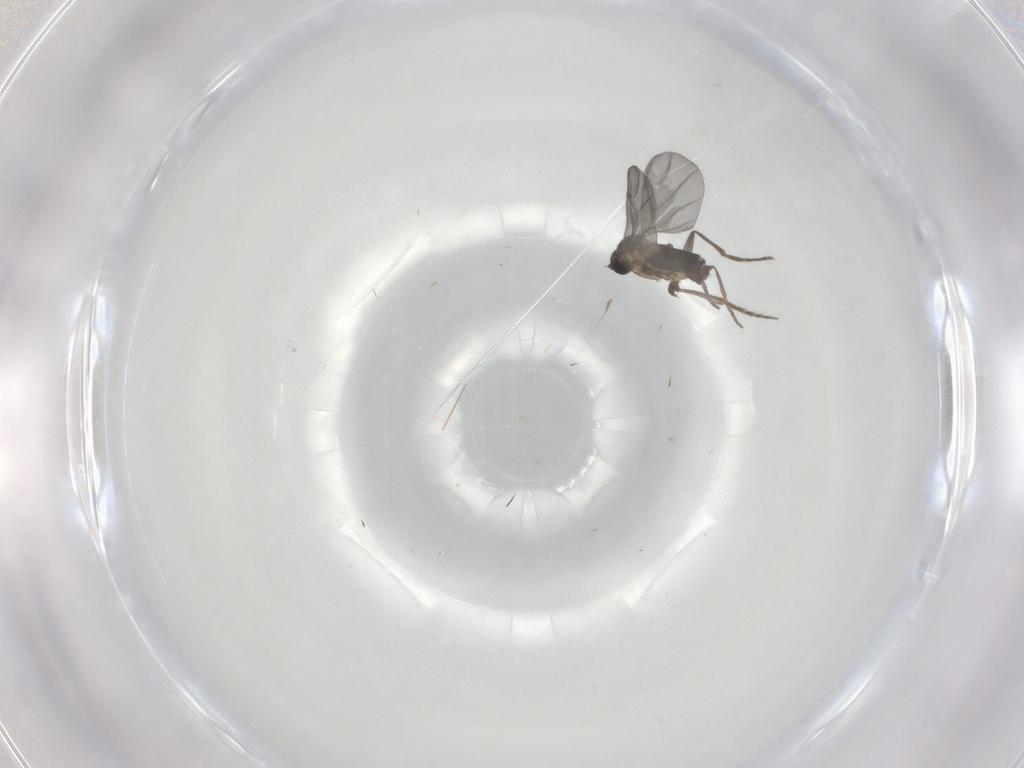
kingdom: Animalia
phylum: Arthropoda
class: Insecta
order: Diptera
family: Phoridae
